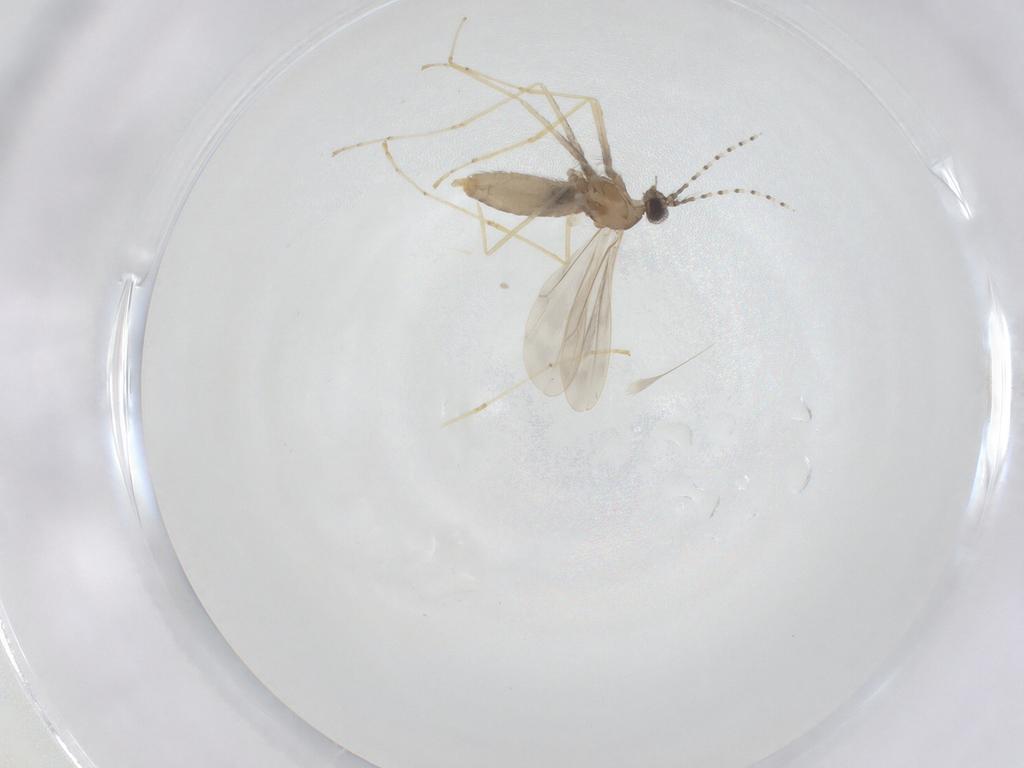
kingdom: Animalia
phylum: Arthropoda
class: Insecta
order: Diptera
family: Cecidomyiidae
